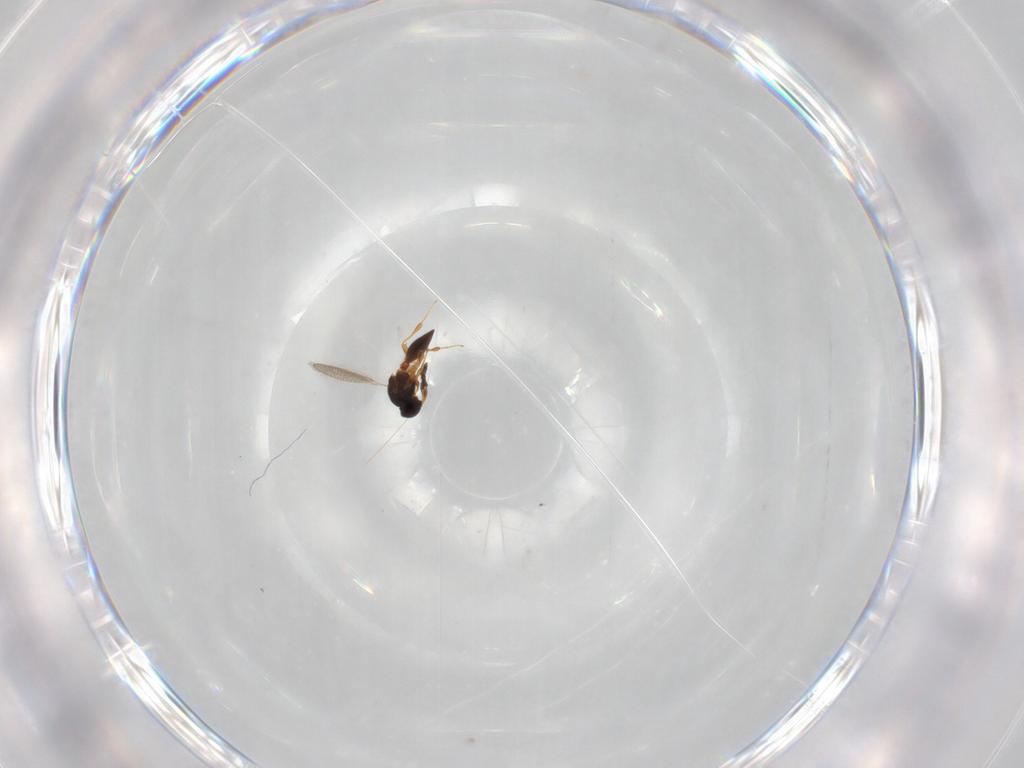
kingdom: Animalia
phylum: Arthropoda
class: Insecta
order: Hymenoptera
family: Platygastridae
